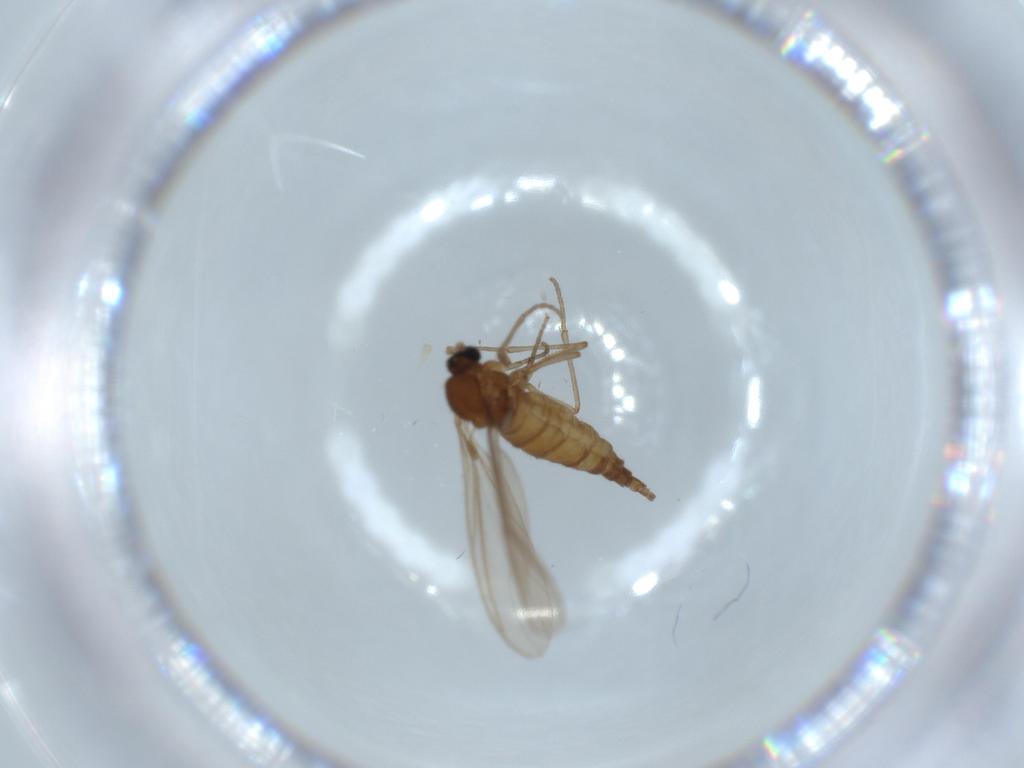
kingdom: Animalia
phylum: Arthropoda
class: Insecta
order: Diptera
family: Sciaridae
